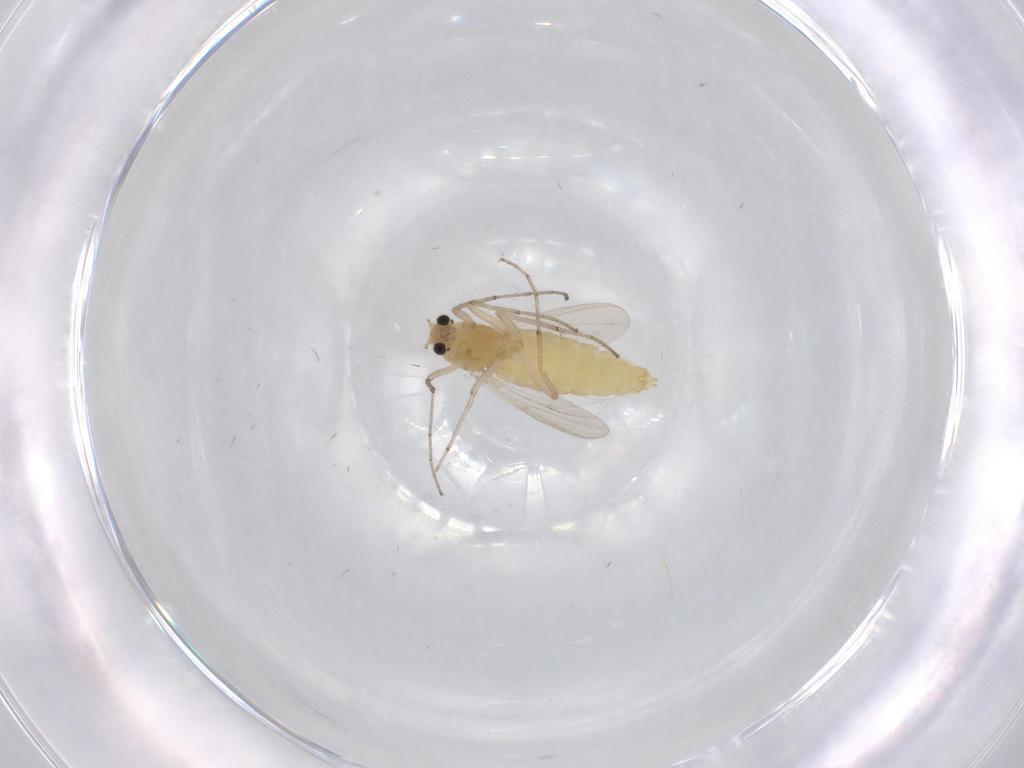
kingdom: Animalia
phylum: Arthropoda
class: Insecta
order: Diptera
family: Chironomidae
